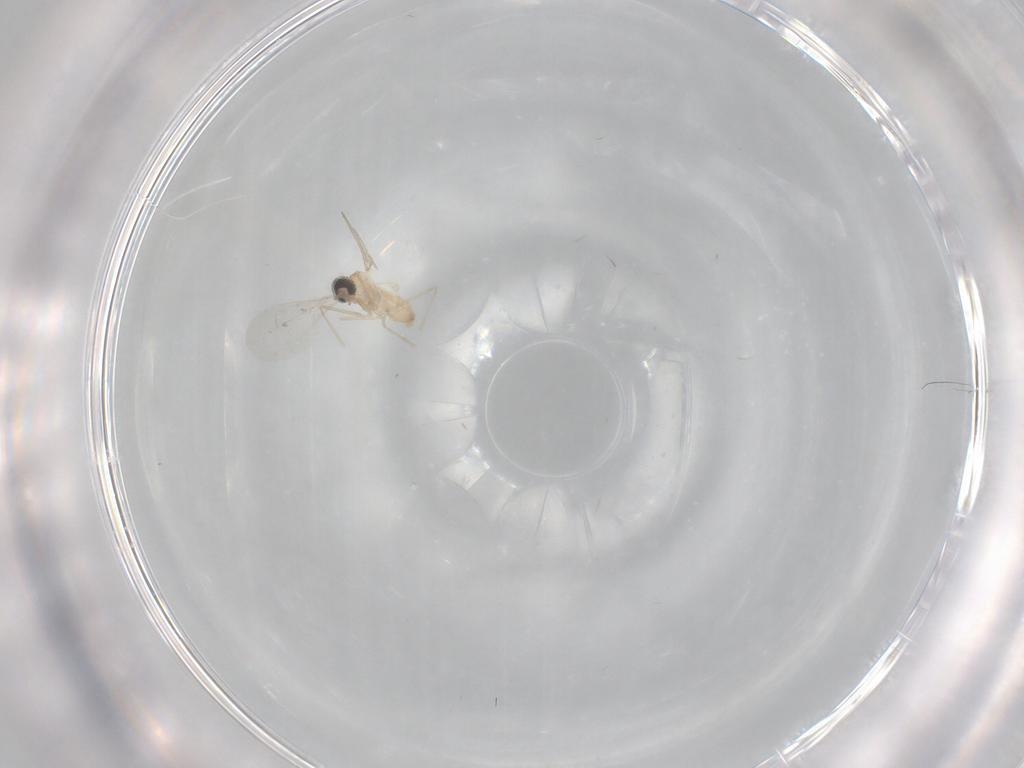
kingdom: Animalia
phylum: Arthropoda
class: Insecta
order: Diptera
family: Cecidomyiidae
